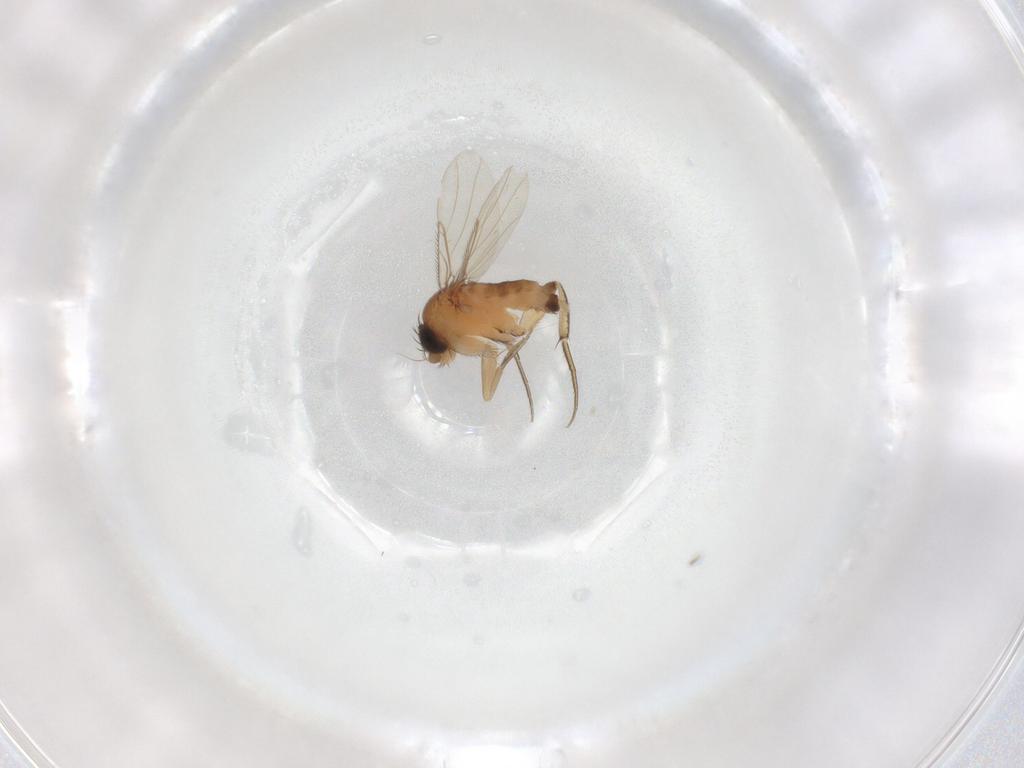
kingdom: Animalia
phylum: Arthropoda
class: Insecta
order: Diptera
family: Phoridae
